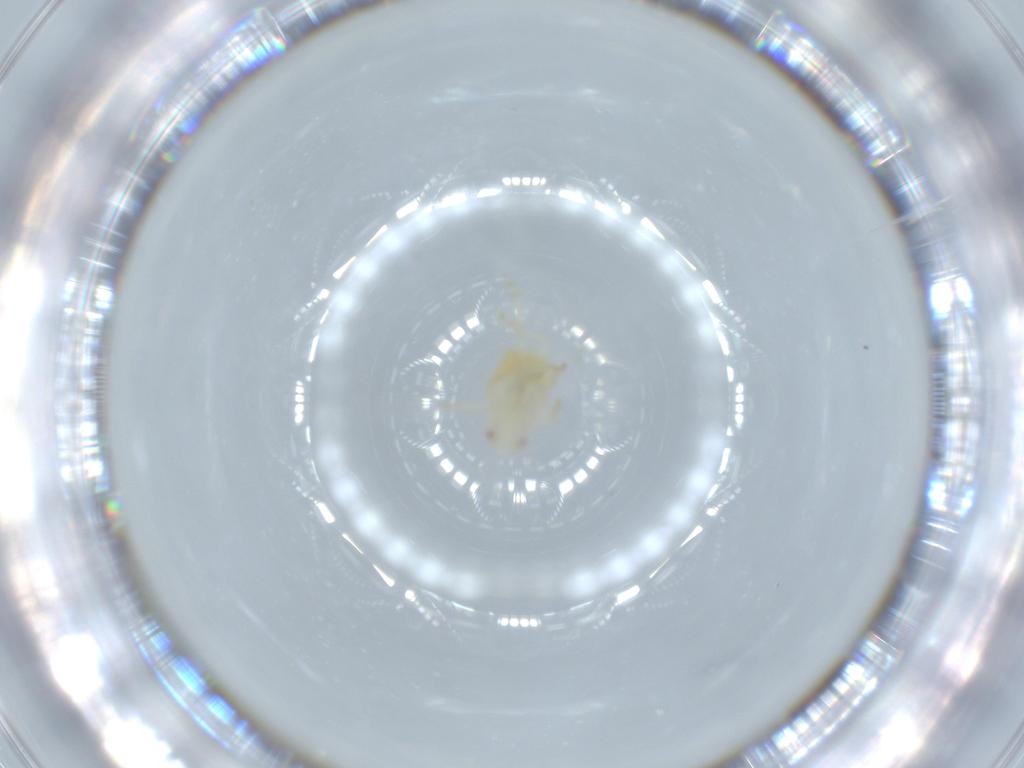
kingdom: Animalia
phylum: Arthropoda
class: Insecta
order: Hemiptera
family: Flatidae
